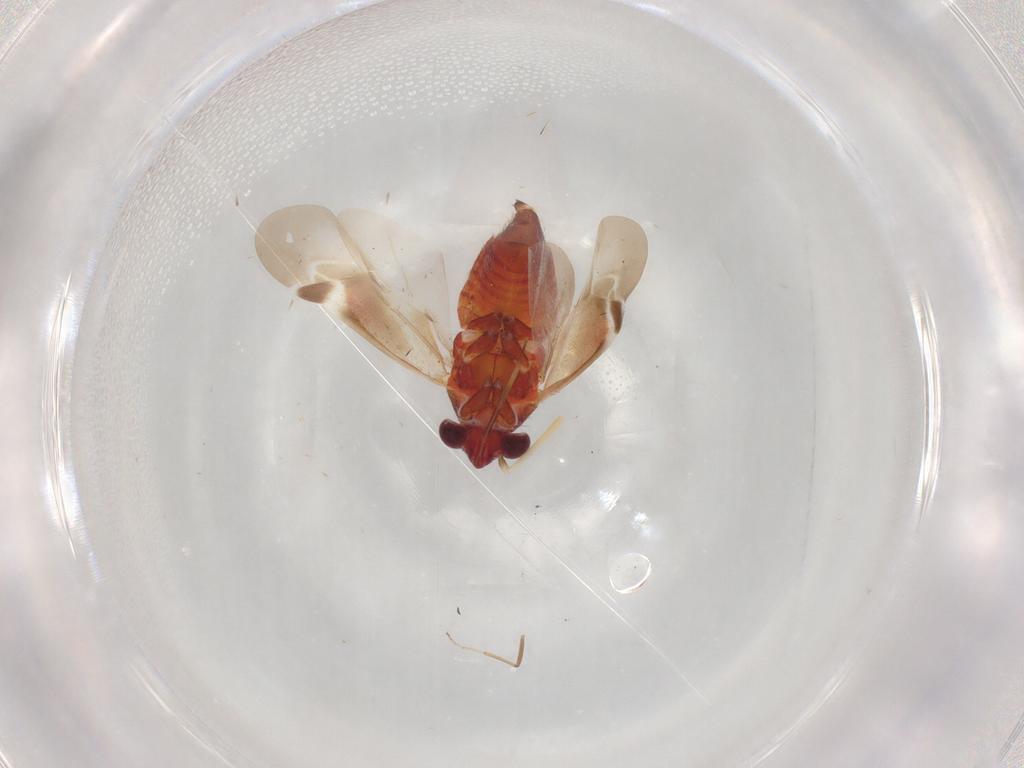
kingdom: Animalia
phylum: Arthropoda
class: Insecta
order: Hemiptera
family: Miridae
